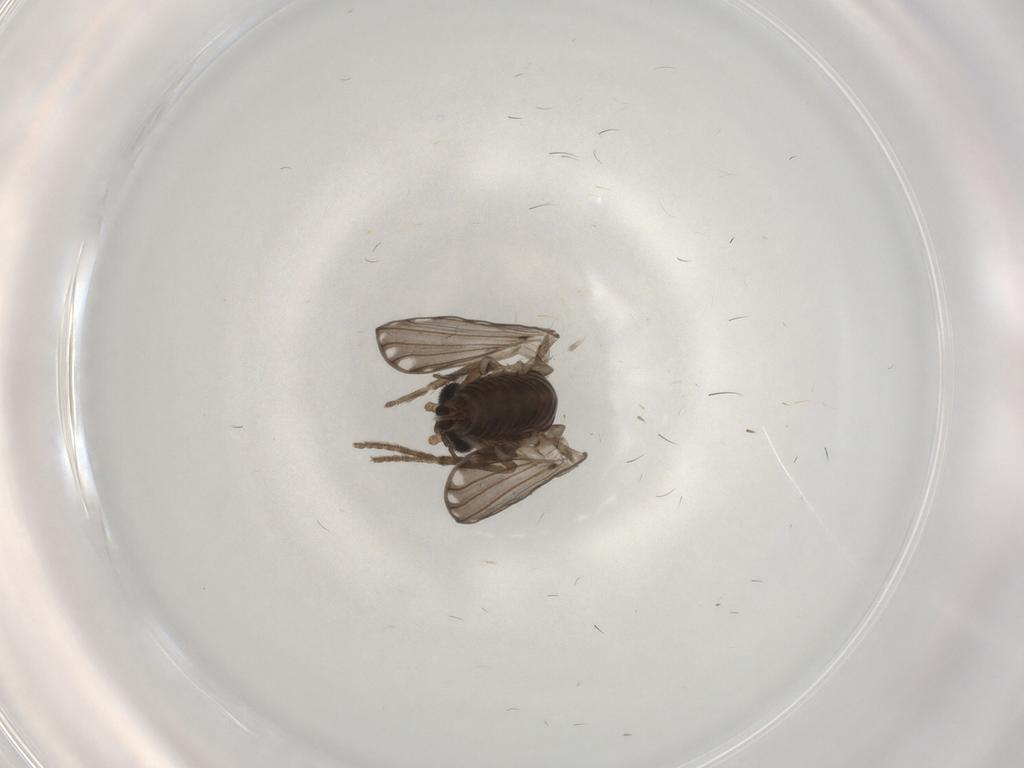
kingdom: Animalia
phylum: Arthropoda
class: Insecta
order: Diptera
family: Psychodidae
